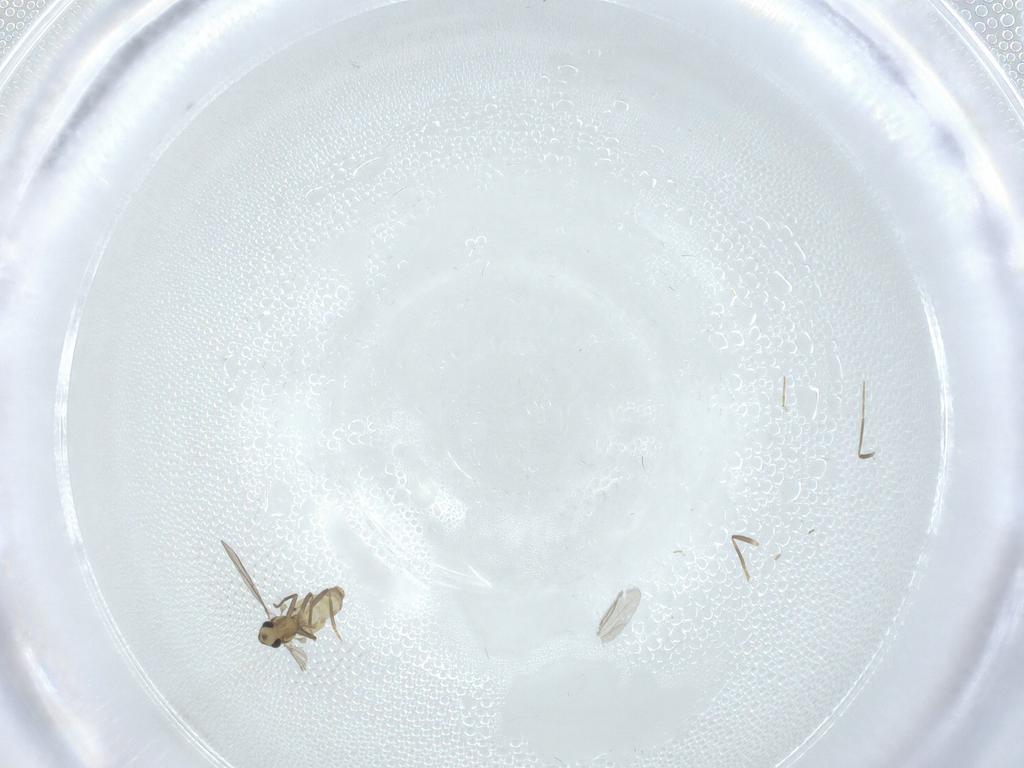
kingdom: Animalia
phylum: Arthropoda
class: Insecta
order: Diptera
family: Chironomidae
